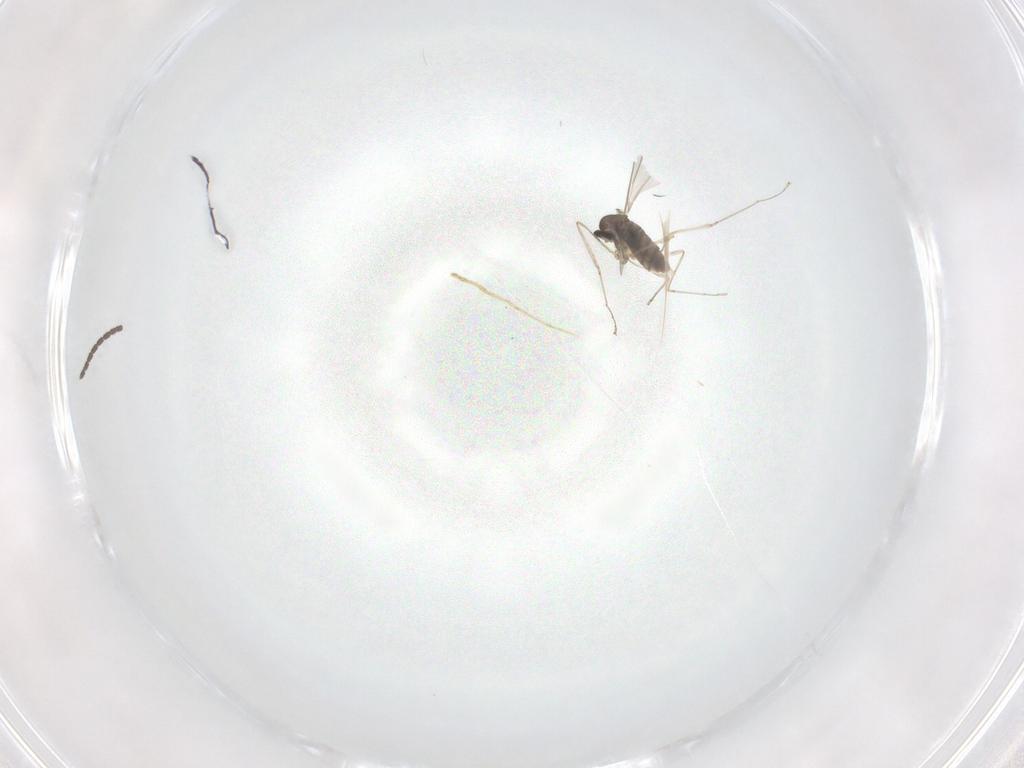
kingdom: Animalia
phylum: Arthropoda
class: Insecta
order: Diptera
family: Sciaridae
